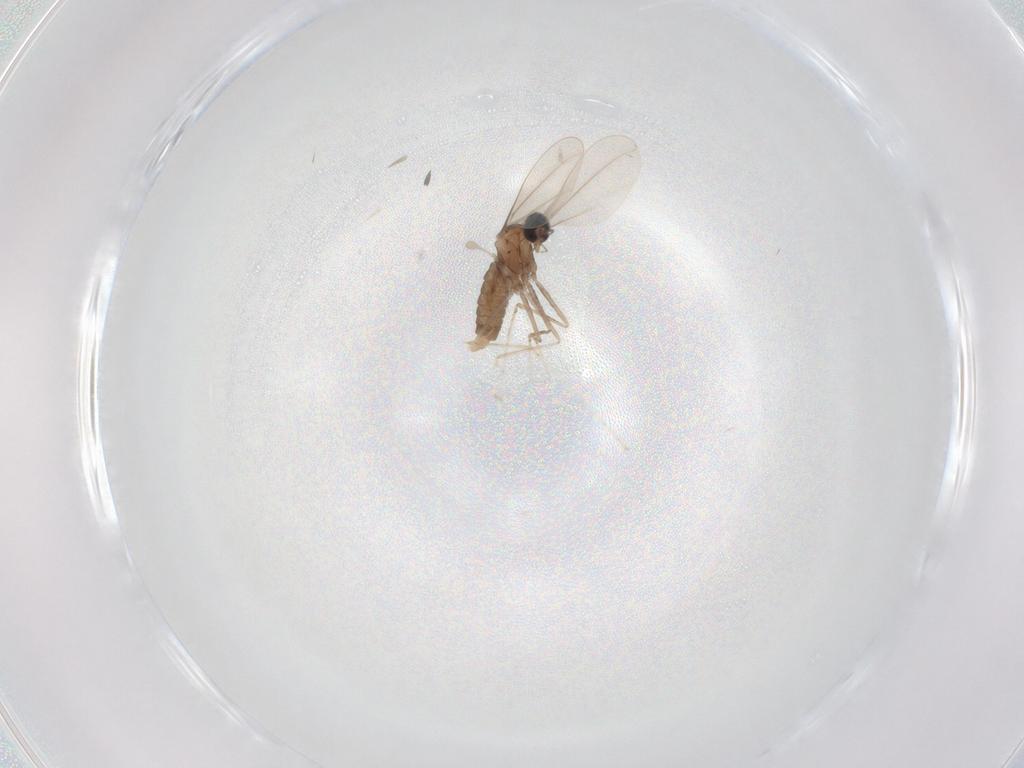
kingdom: Animalia
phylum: Arthropoda
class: Insecta
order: Diptera
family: Cecidomyiidae
